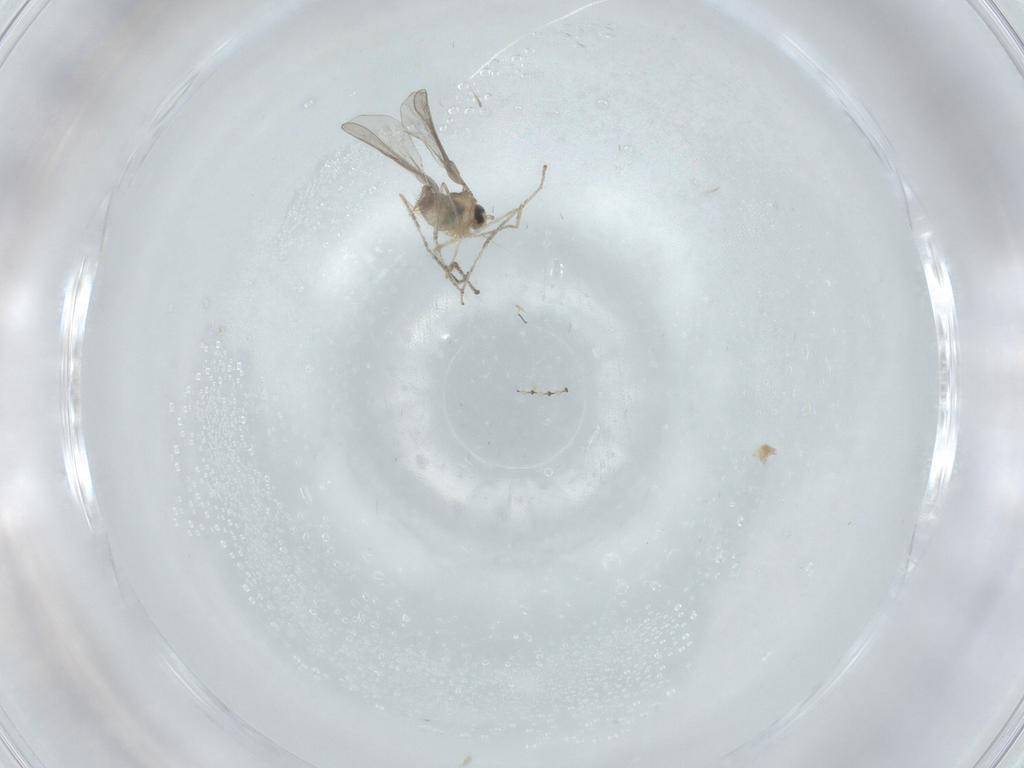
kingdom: Animalia
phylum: Arthropoda
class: Insecta
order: Diptera
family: Cecidomyiidae
